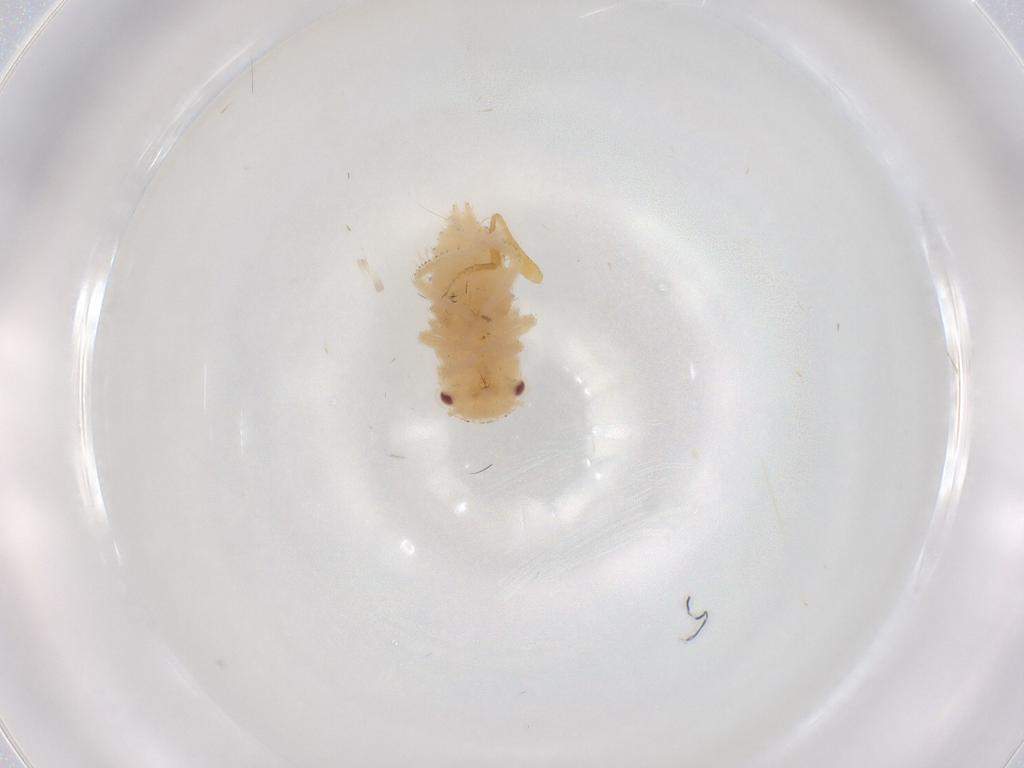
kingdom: Animalia
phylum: Arthropoda
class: Insecta
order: Hemiptera
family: Cicadellidae
